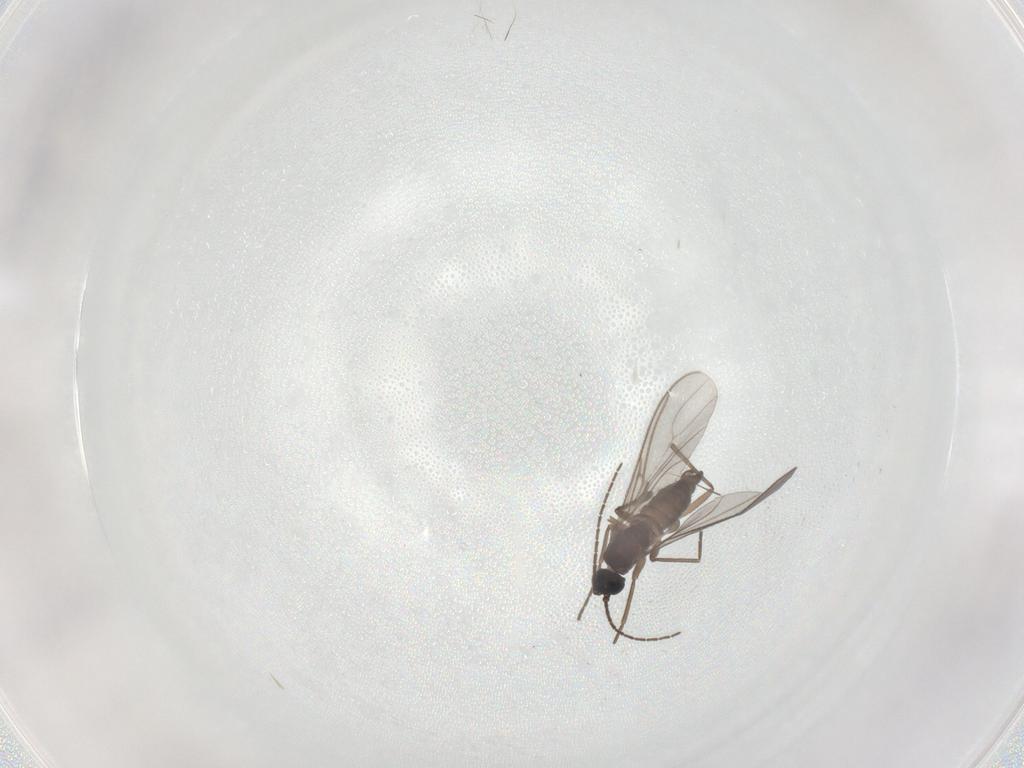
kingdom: Animalia
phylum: Arthropoda
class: Insecta
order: Diptera
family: Sciaridae
